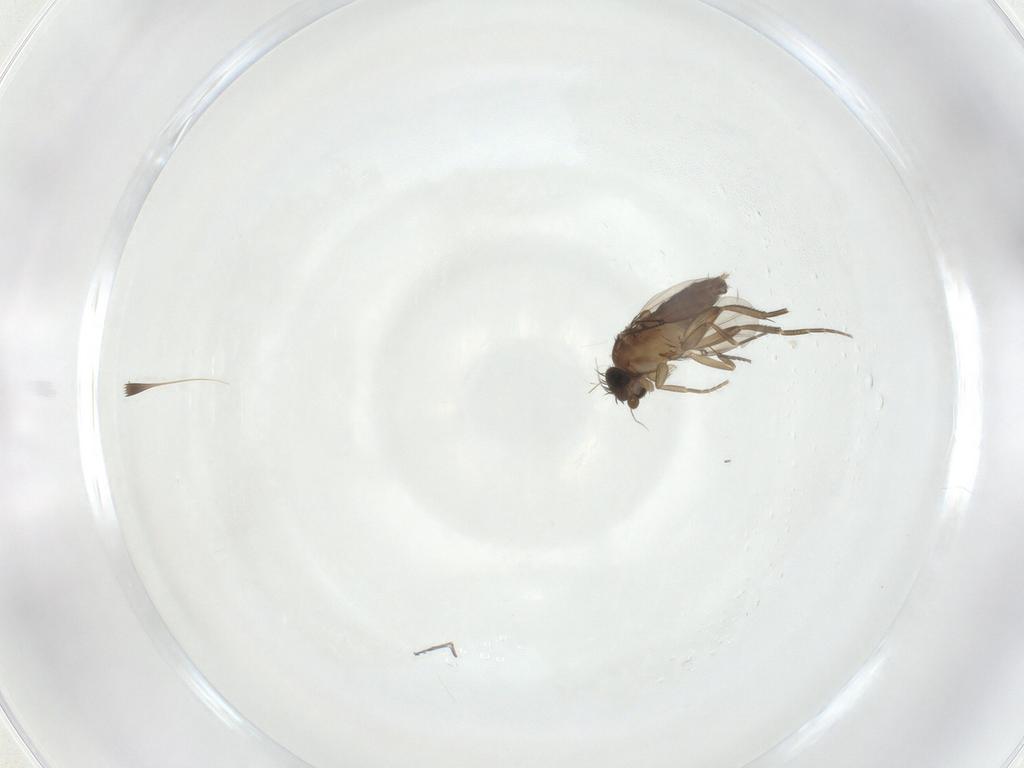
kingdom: Animalia
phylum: Arthropoda
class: Insecta
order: Diptera
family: Phoridae
